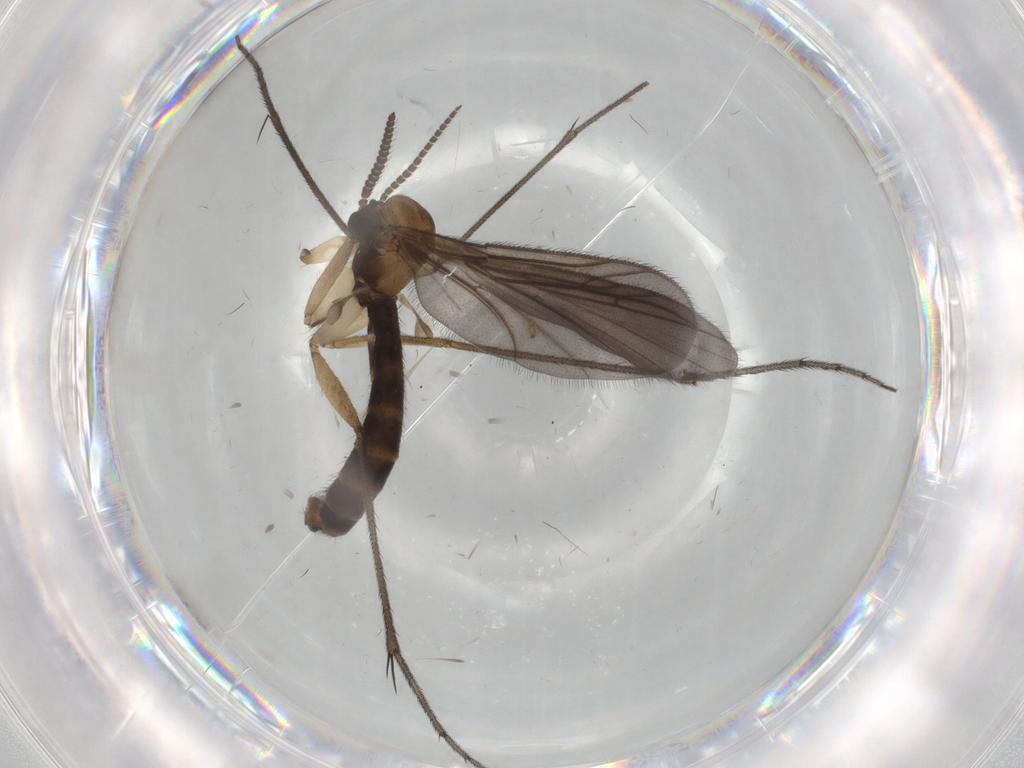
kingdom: Animalia
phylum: Arthropoda
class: Insecta
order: Diptera
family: Ditomyiidae
